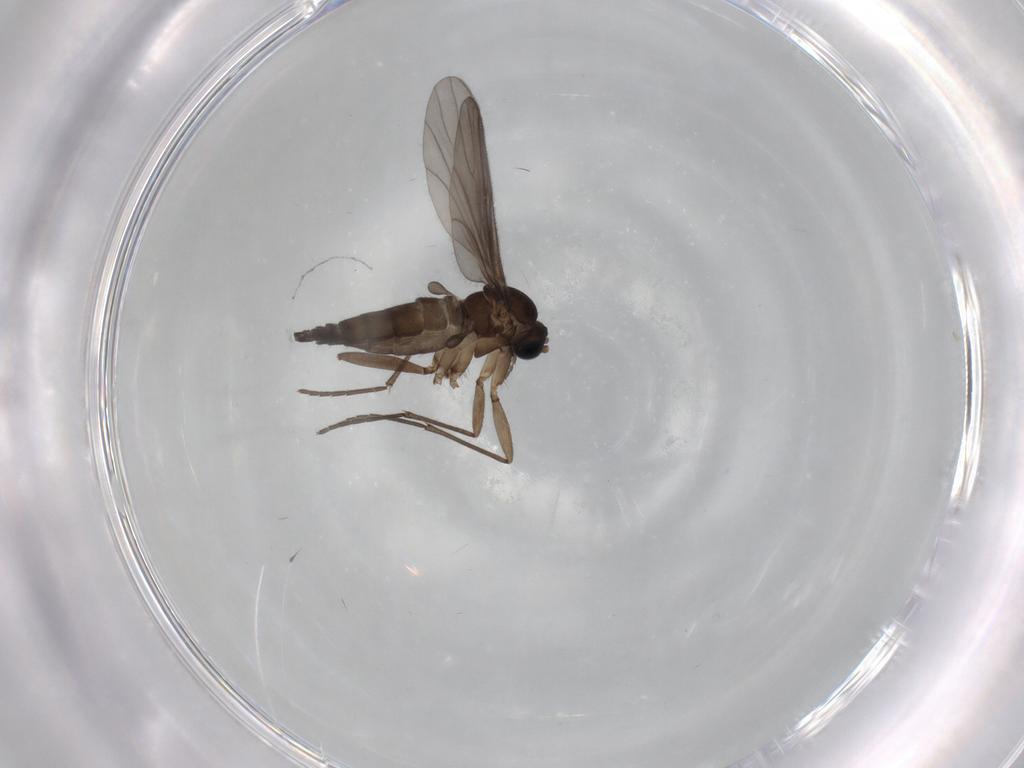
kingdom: Animalia
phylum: Arthropoda
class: Insecta
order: Diptera
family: Sciaridae
